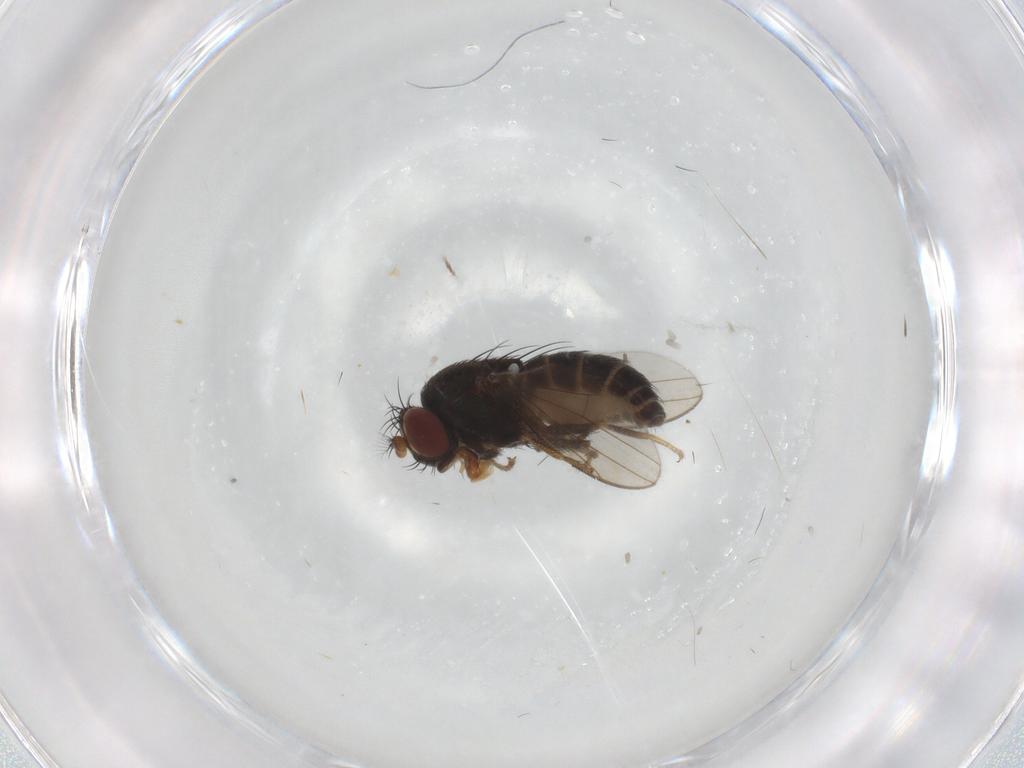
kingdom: Animalia
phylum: Arthropoda
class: Insecta
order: Diptera
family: Ephydridae
